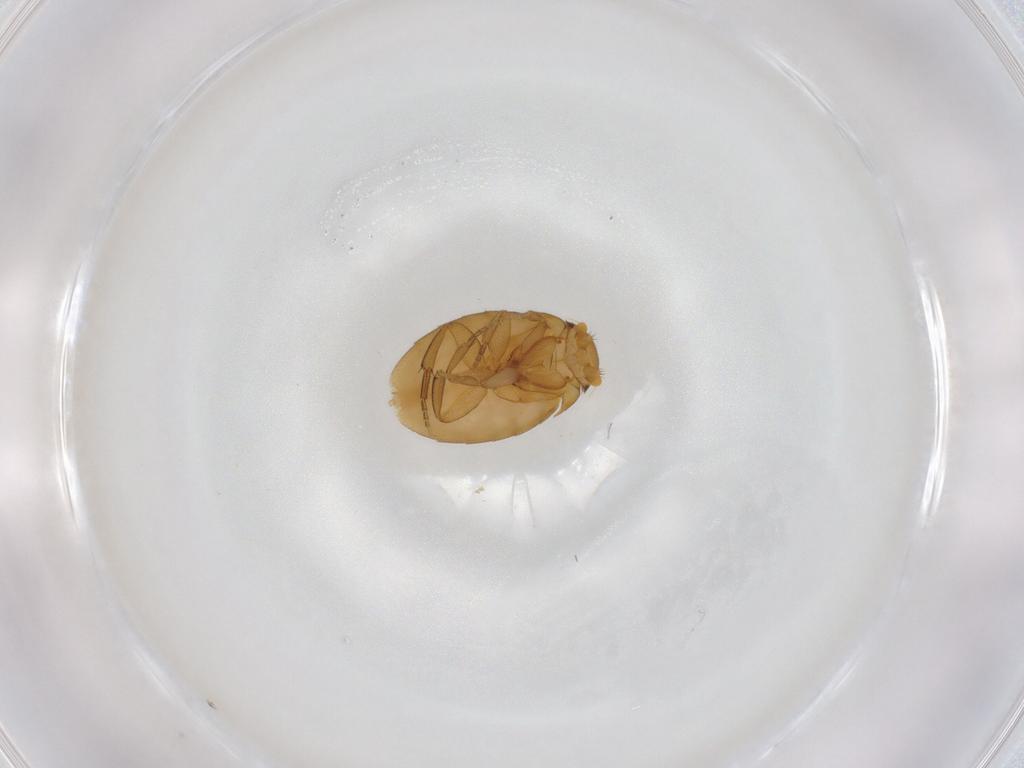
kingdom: Animalia
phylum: Arthropoda
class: Insecta
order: Diptera
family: Phoridae
